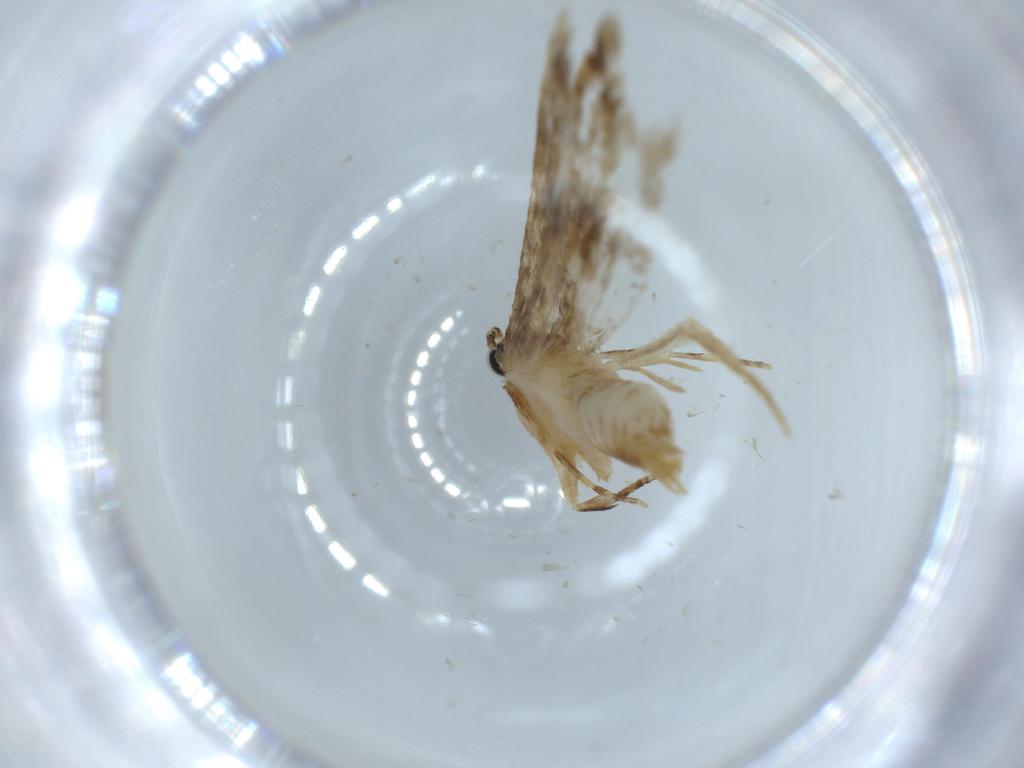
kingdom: Animalia
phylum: Arthropoda
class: Insecta
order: Lepidoptera
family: Tineidae
